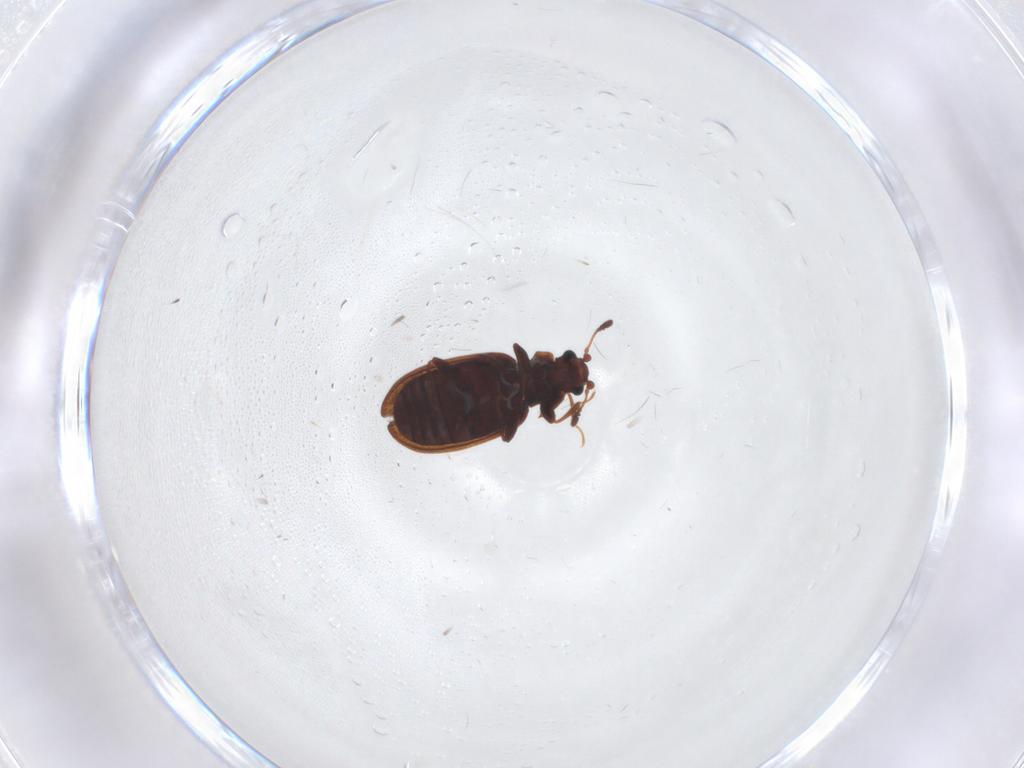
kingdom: Animalia
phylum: Arthropoda
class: Insecta
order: Coleoptera
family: Latridiidae
